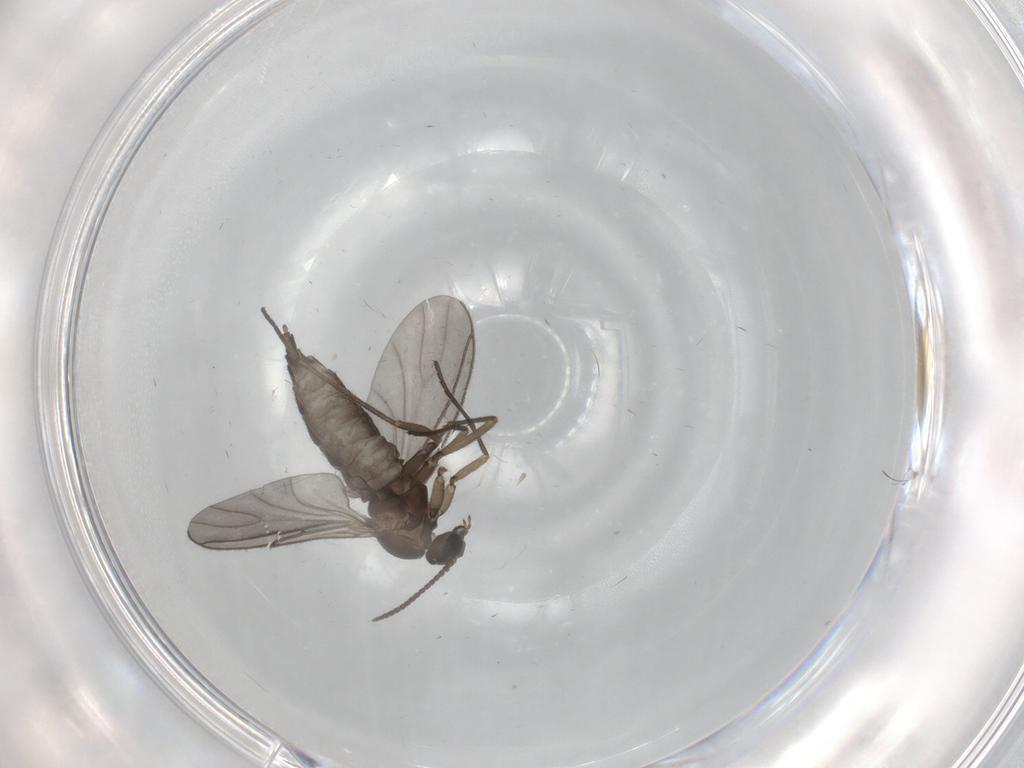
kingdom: Animalia
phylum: Arthropoda
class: Insecta
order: Diptera
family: Sciaridae
